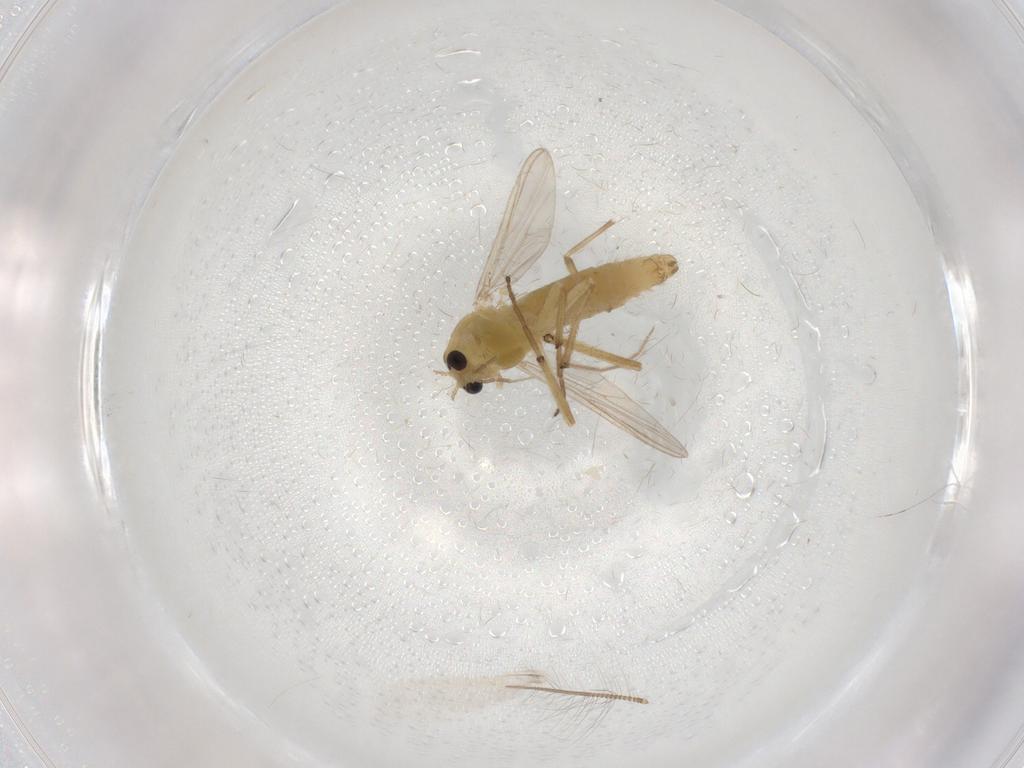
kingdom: Animalia
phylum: Arthropoda
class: Insecta
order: Diptera
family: Chironomidae
